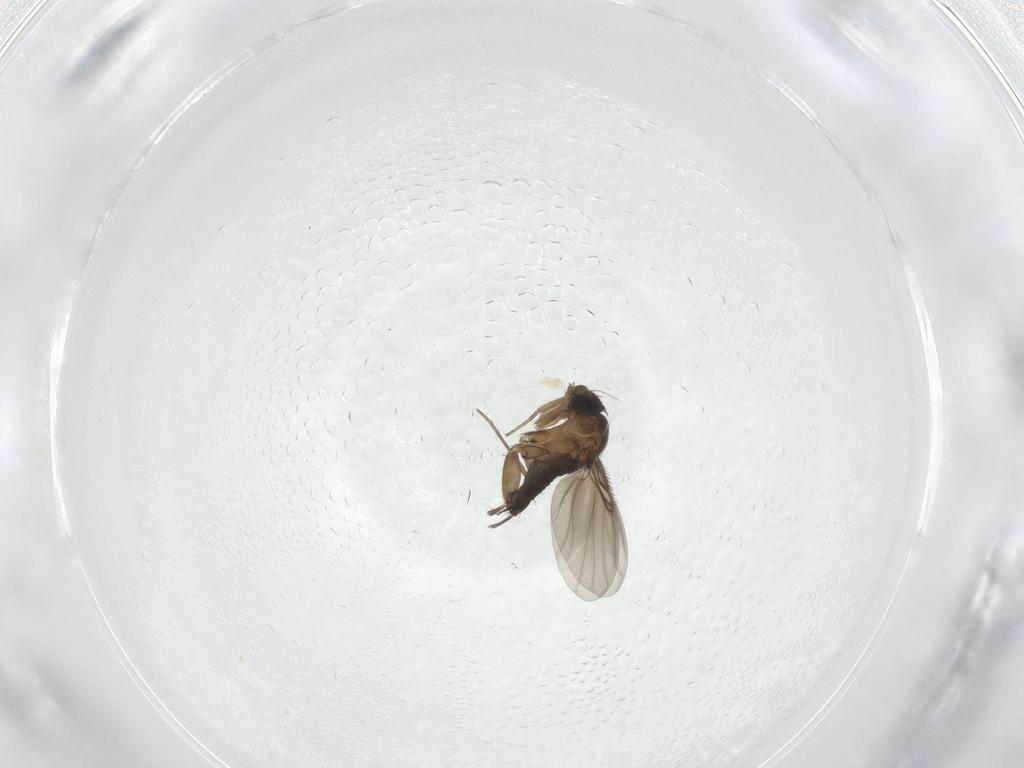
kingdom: Animalia
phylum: Arthropoda
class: Insecta
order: Diptera
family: Phoridae
